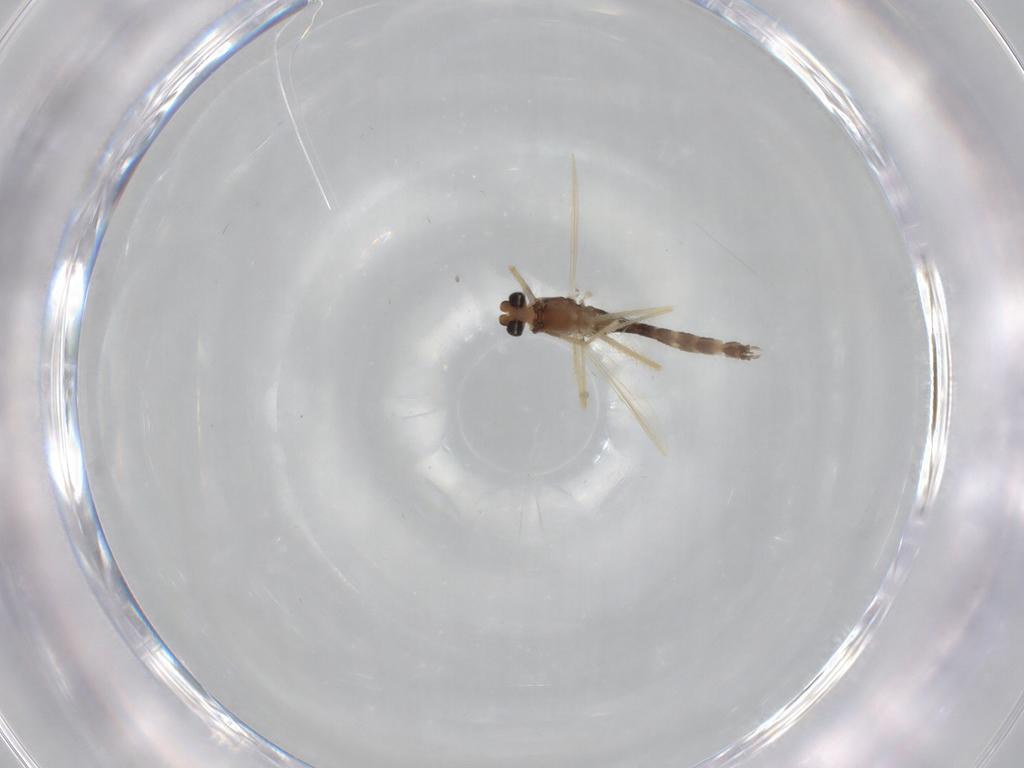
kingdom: Animalia
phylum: Arthropoda
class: Insecta
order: Diptera
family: Chironomidae
